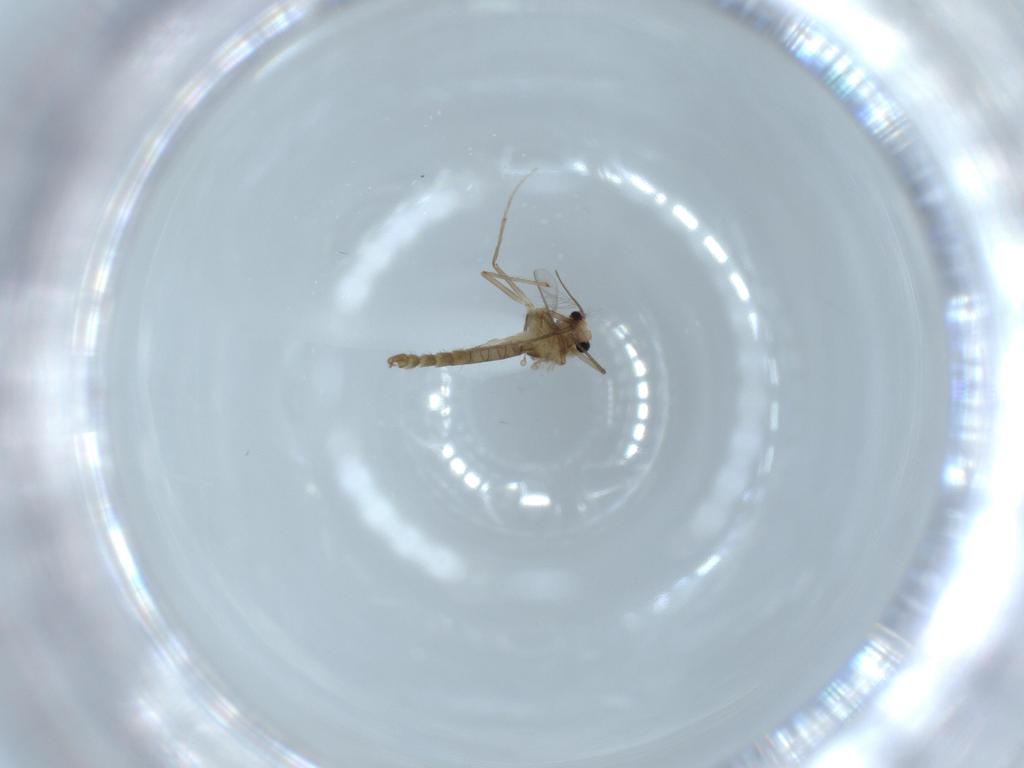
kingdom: Animalia
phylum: Arthropoda
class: Insecta
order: Diptera
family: Chironomidae
